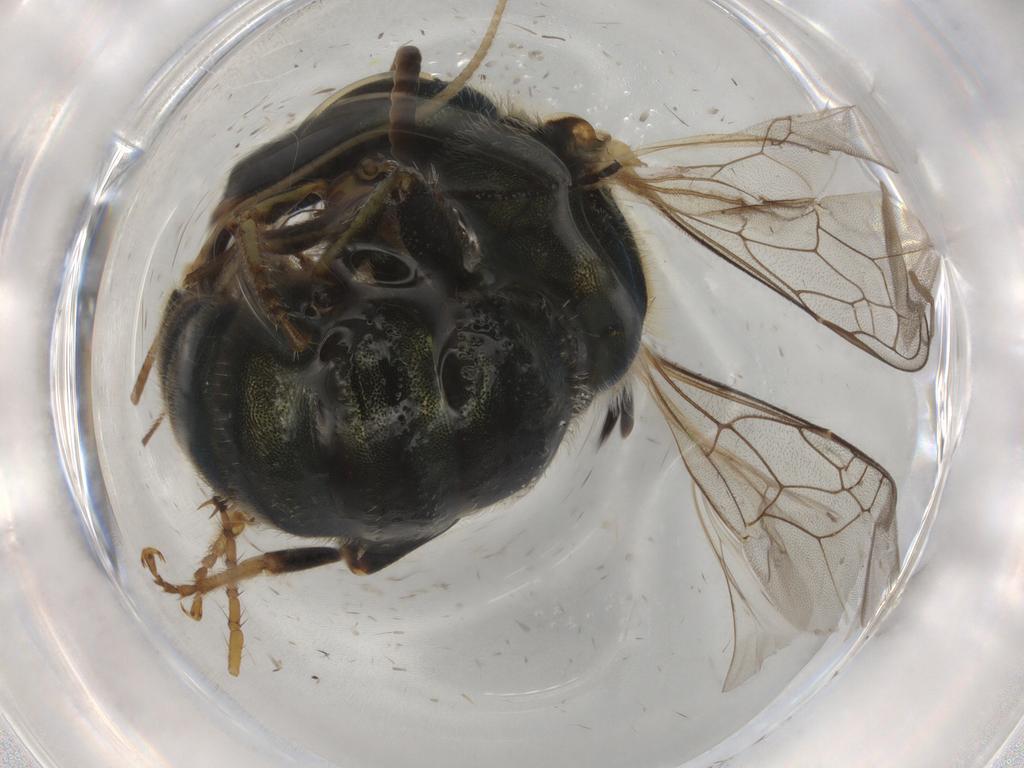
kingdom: Animalia
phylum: Arthropoda
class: Insecta
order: Hymenoptera
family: Halictidae
